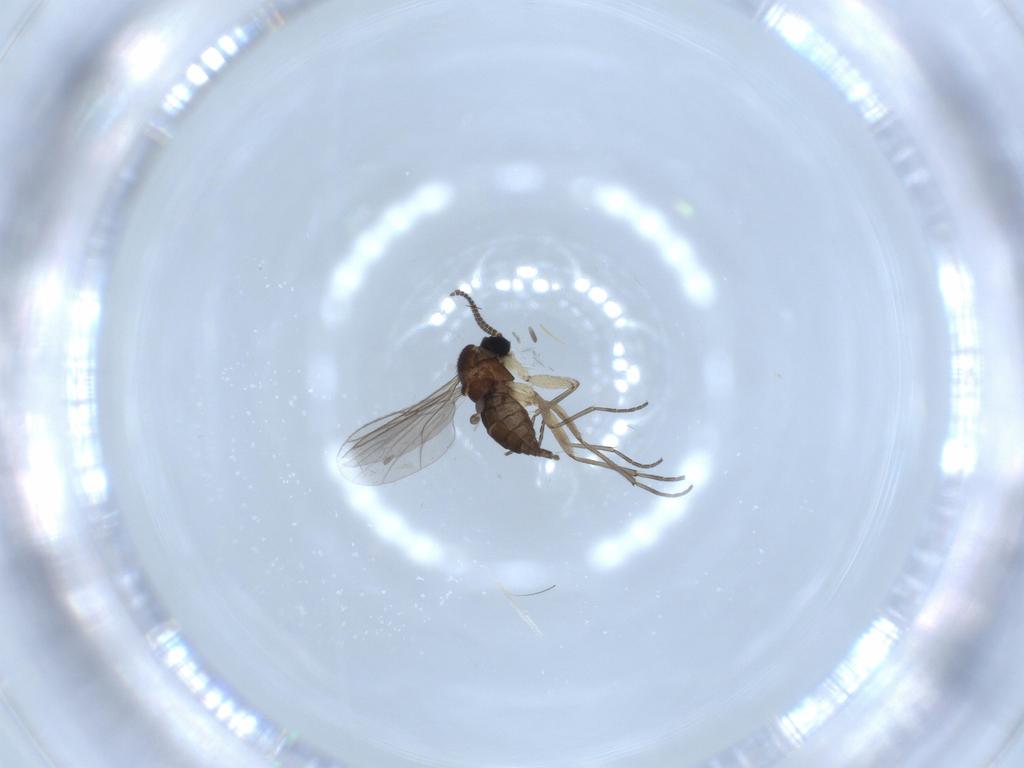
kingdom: Animalia
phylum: Arthropoda
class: Insecta
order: Diptera
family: Sciaridae
